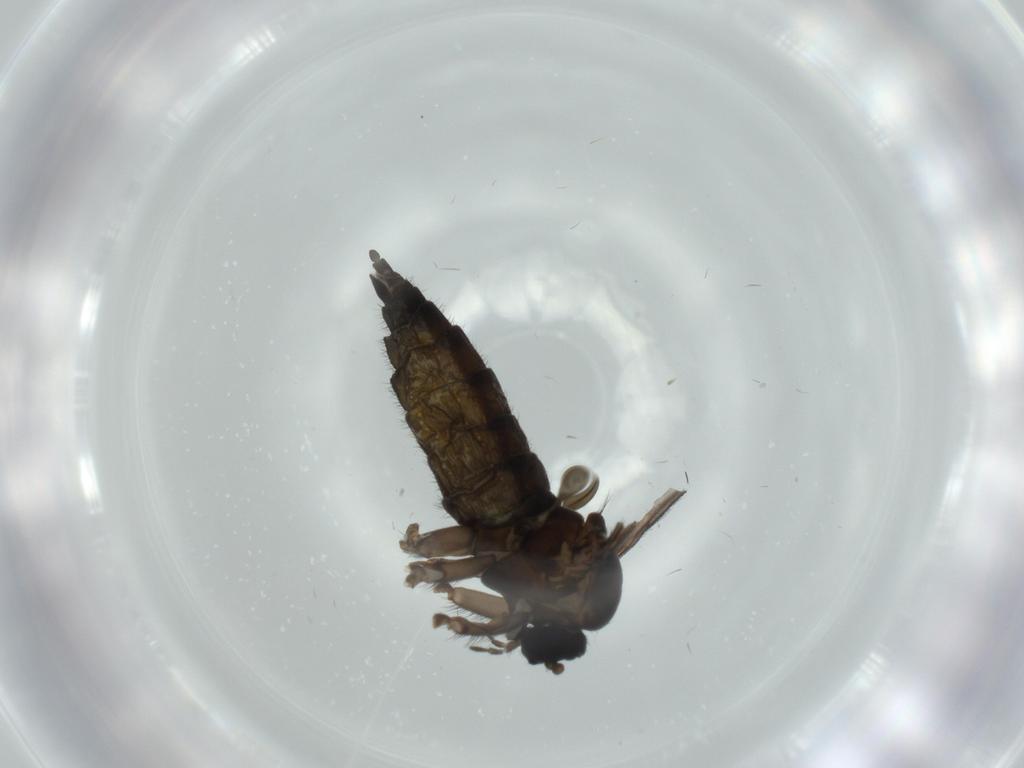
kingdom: Animalia
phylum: Arthropoda
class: Insecta
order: Diptera
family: Sciaridae
